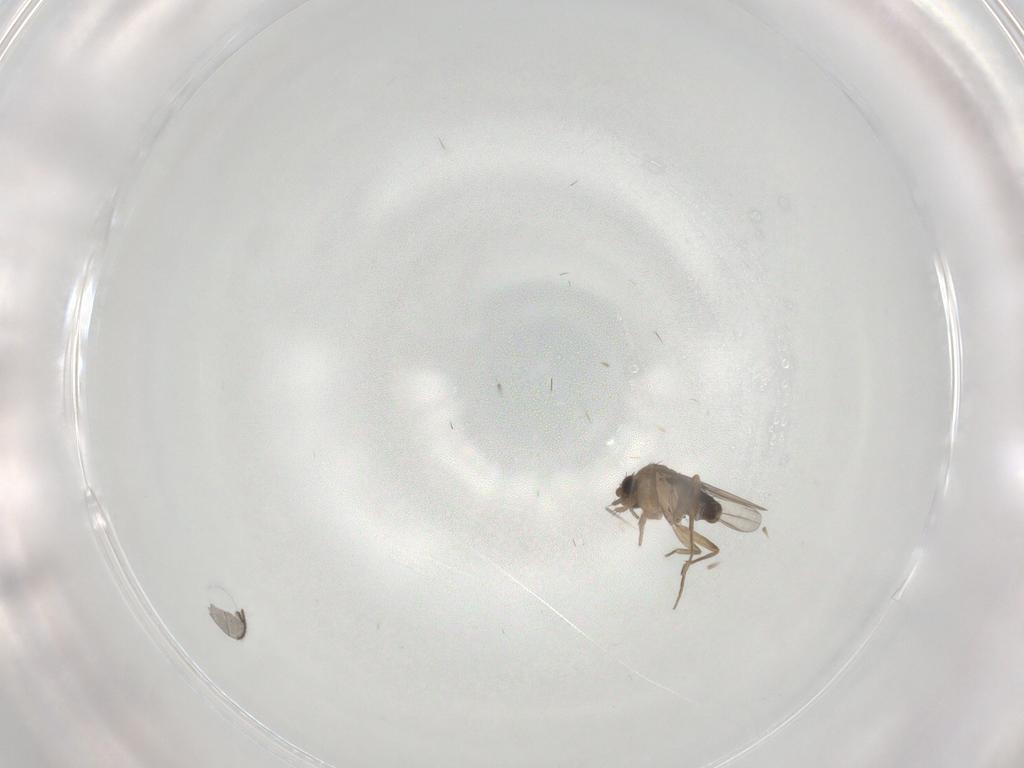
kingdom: Animalia
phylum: Arthropoda
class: Insecta
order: Diptera
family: Phoridae
